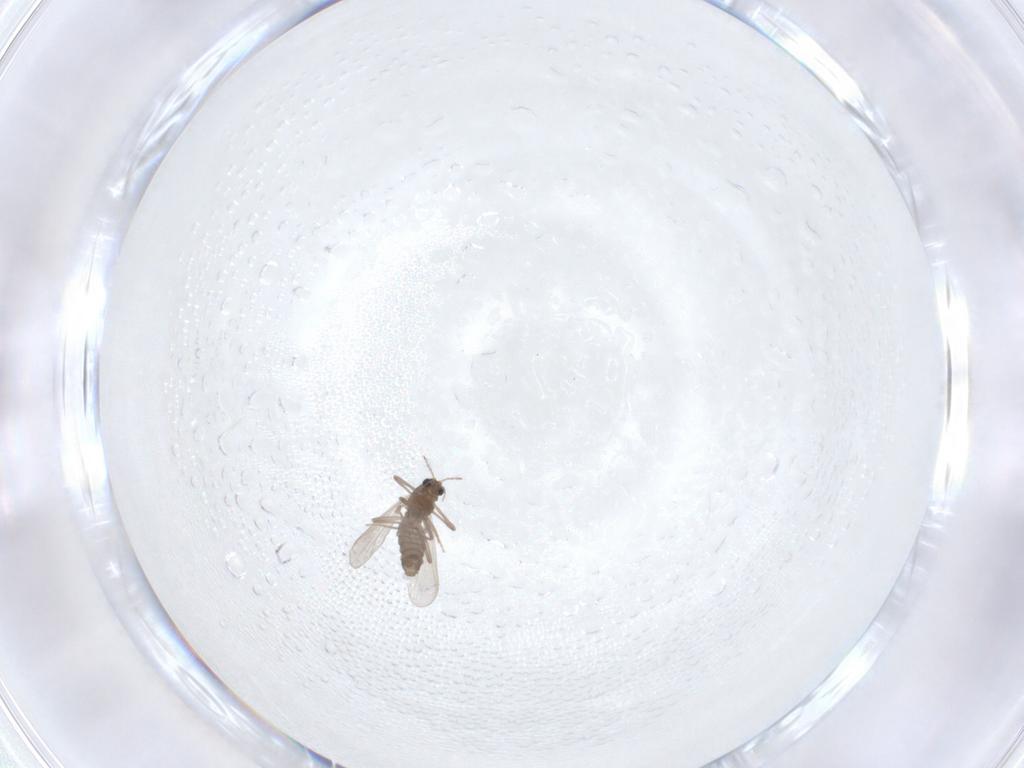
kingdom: Animalia
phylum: Arthropoda
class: Insecta
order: Diptera
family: Chironomidae
